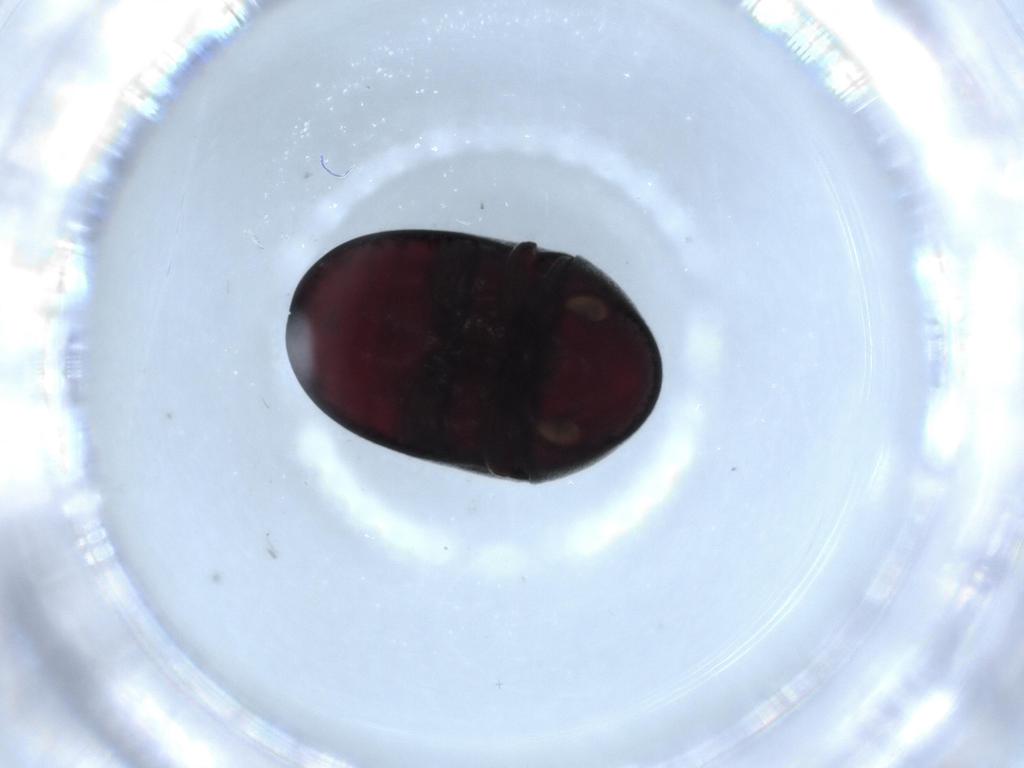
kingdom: Animalia
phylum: Arthropoda
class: Insecta
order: Coleoptera
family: Ptinidae
